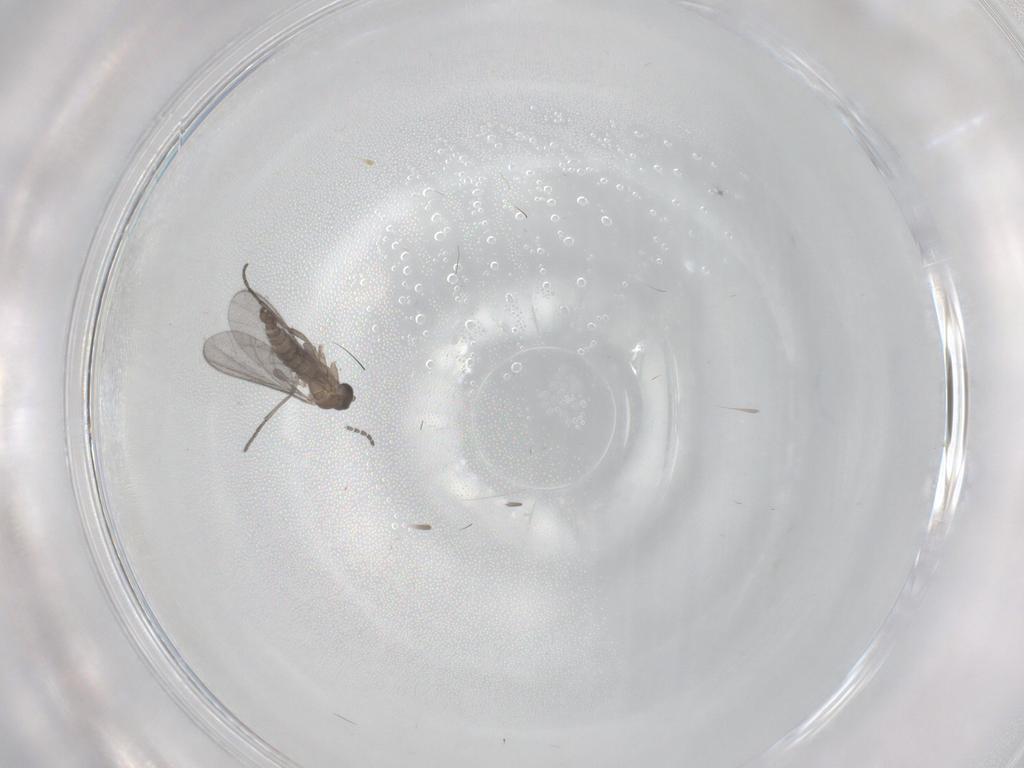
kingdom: Animalia
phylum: Arthropoda
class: Insecta
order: Diptera
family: Sciaridae
